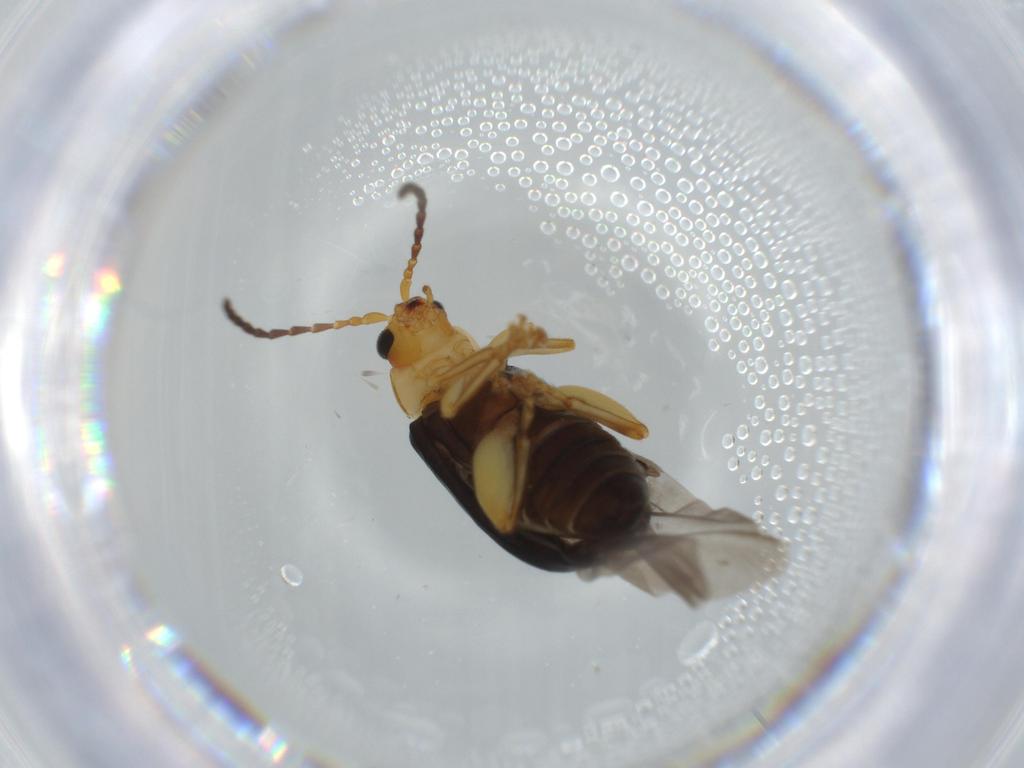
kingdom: Animalia
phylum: Arthropoda
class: Insecta
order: Coleoptera
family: Chrysomelidae
